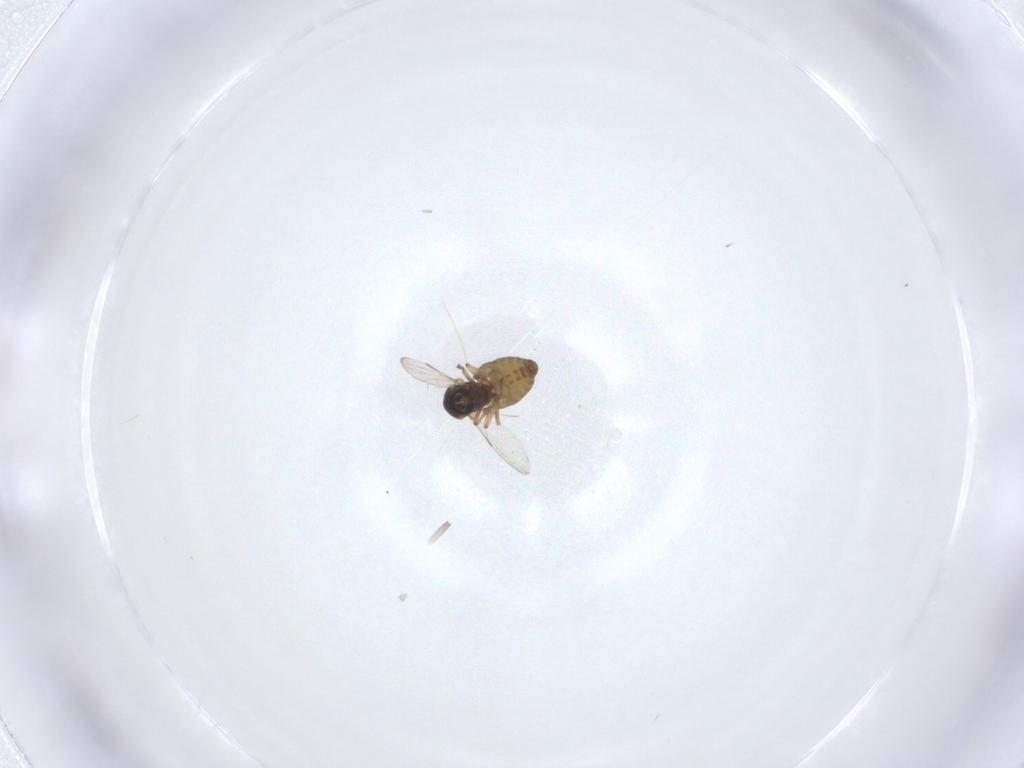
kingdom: Animalia
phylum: Arthropoda
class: Insecta
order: Diptera
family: Ceratopogonidae
